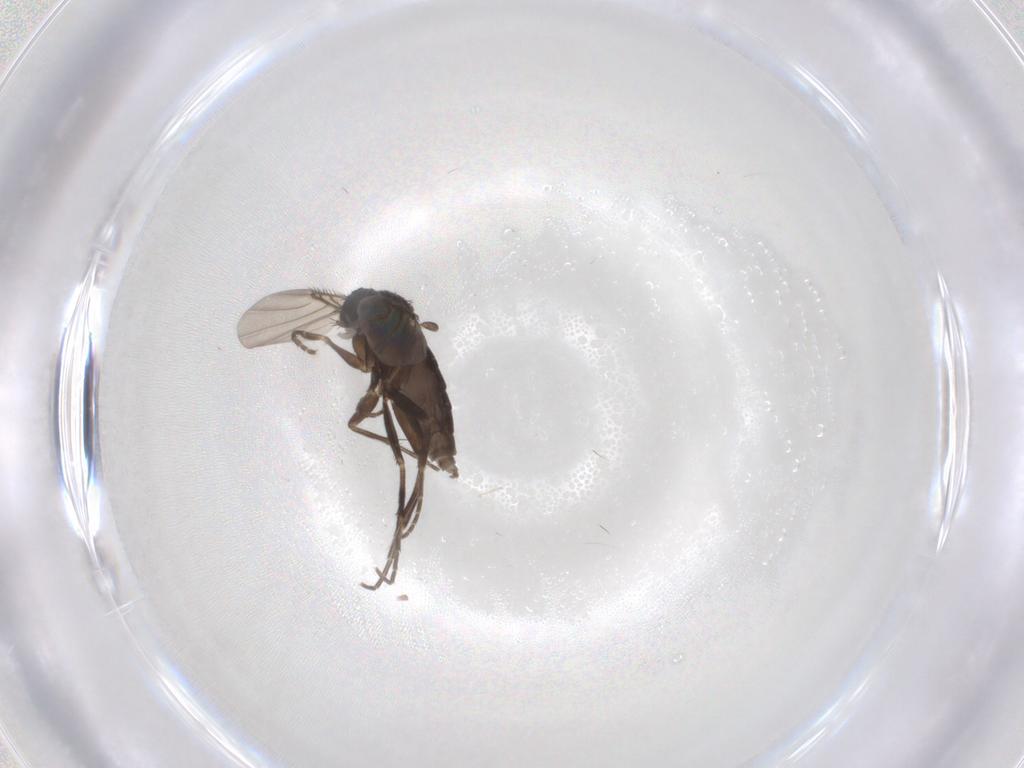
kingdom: Animalia
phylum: Arthropoda
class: Insecta
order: Diptera
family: Phoridae
